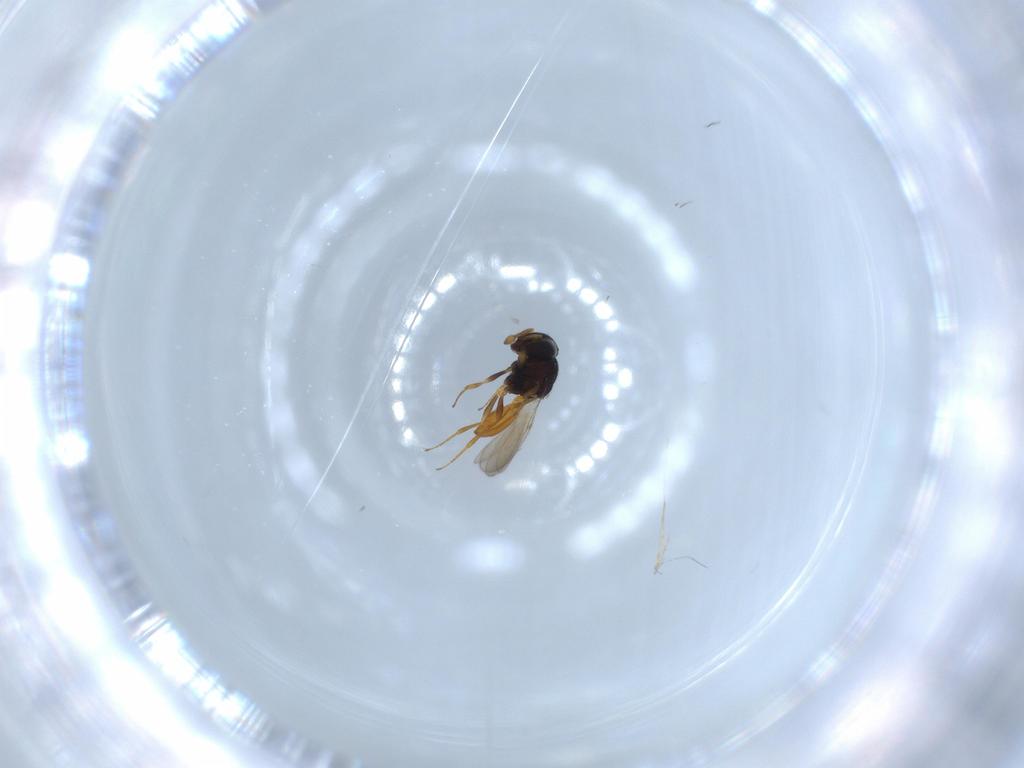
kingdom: Animalia
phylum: Arthropoda
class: Insecta
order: Hymenoptera
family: Scelionidae
